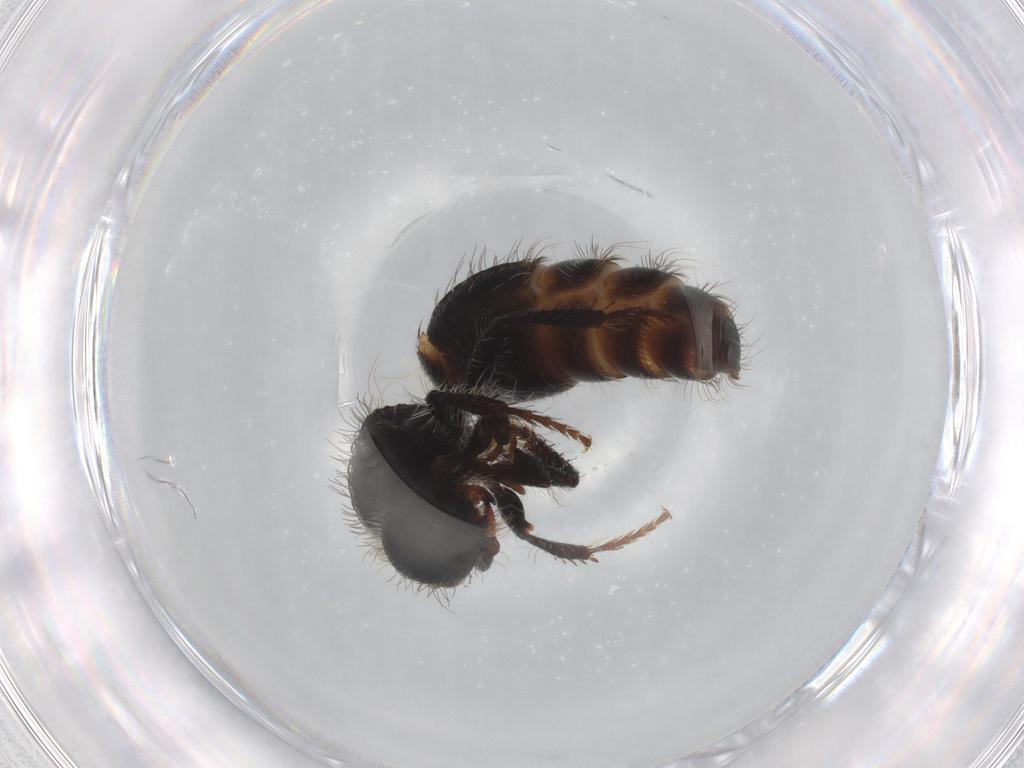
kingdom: Animalia
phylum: Arthropoda
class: Insecta
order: Hymenoptera
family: Mutillidae
